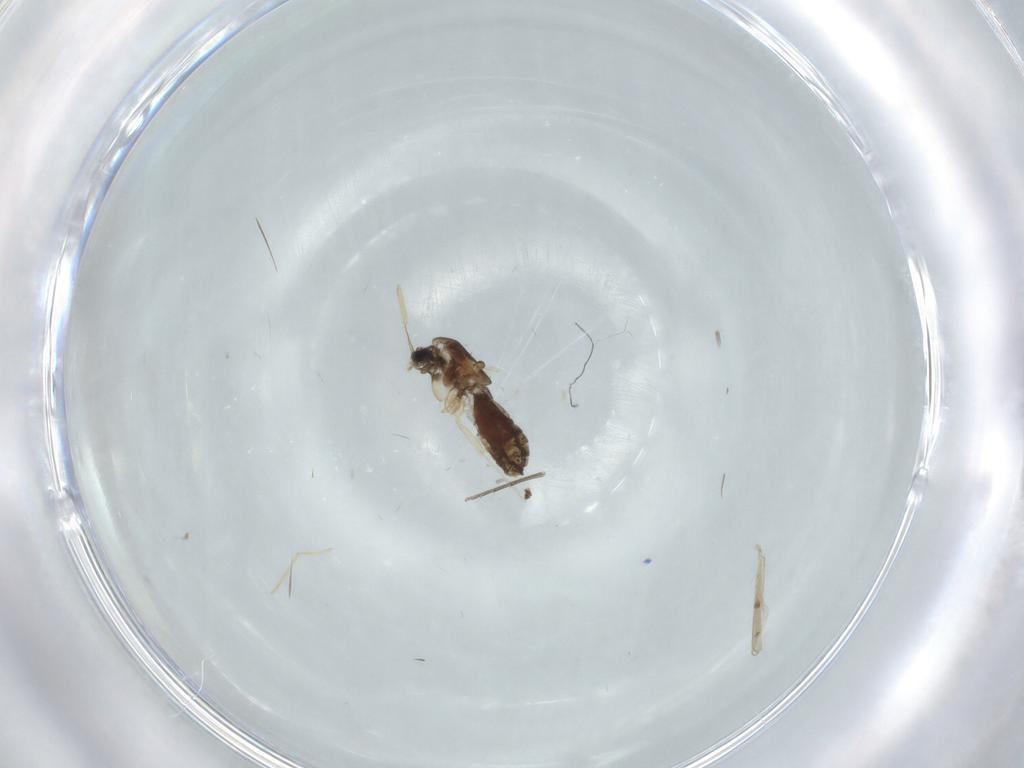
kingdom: Animalia
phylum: Arthropoda
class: Insecta
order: Diptera
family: Chironomidae
